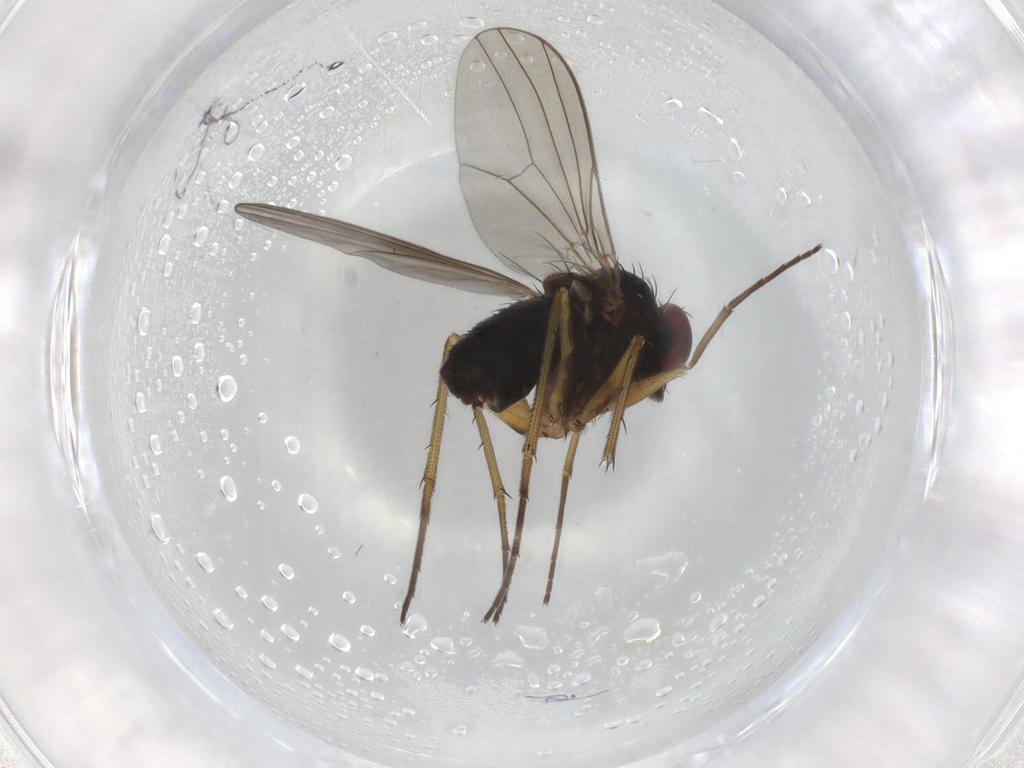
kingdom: Animalia
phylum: Arthropoda
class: Insecta
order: Diptera
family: Dolichopodidae
